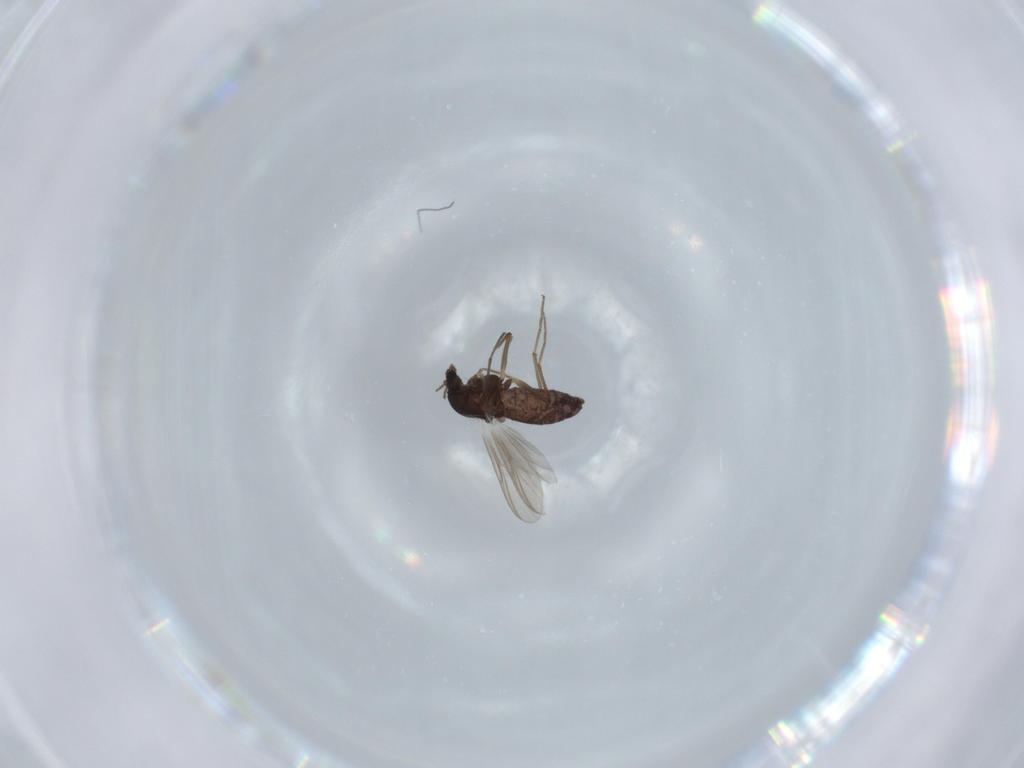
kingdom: Animalia
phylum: Arthropoda
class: Insecta
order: Diptera
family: Chironomidae
